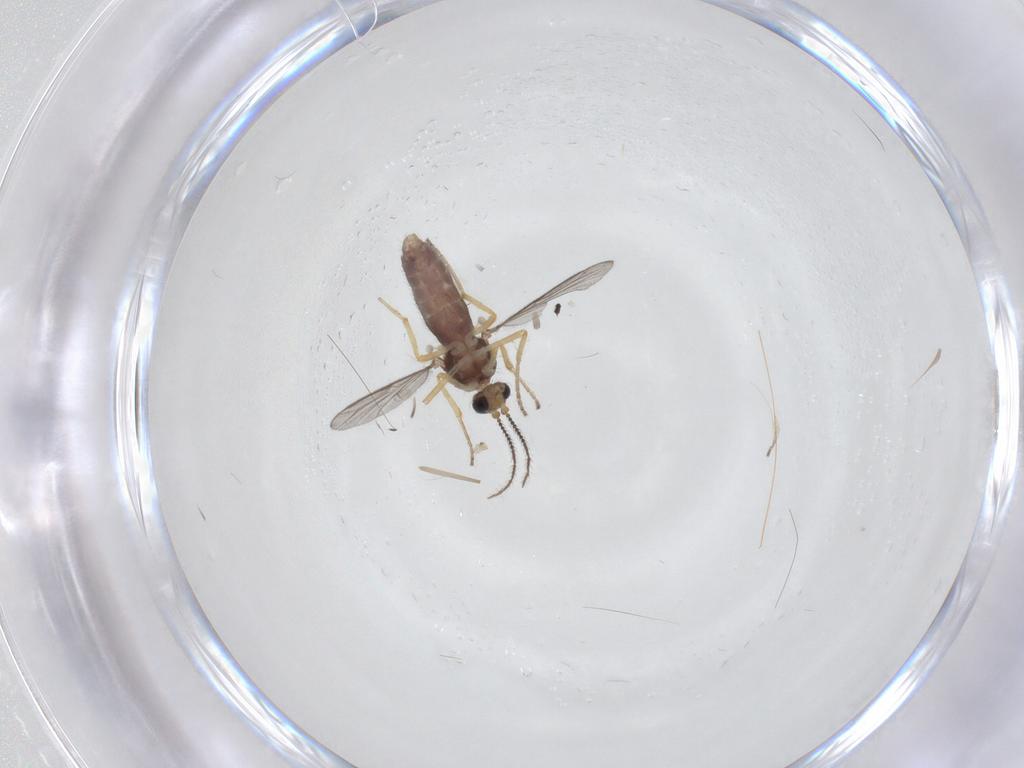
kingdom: Animalia
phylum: Arthropoda
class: Insecta
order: Diptera
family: Ceratopogonidae
